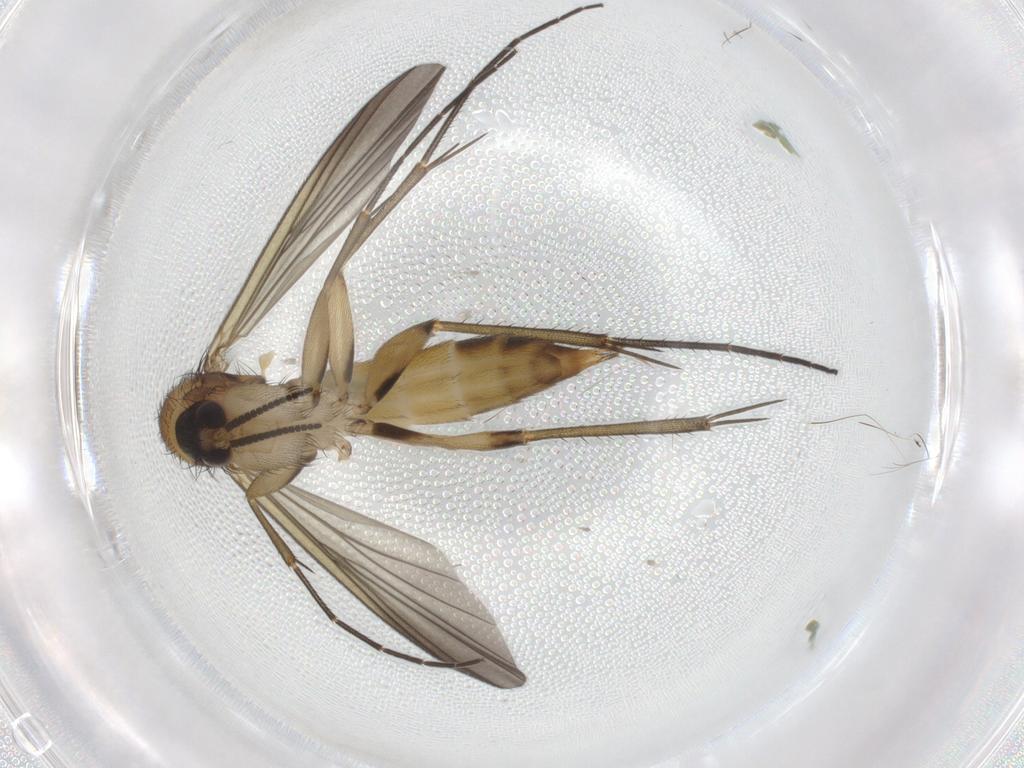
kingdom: Animalia
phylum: Arthropoda
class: Insecta
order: Diptera
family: Mycetophilidae
